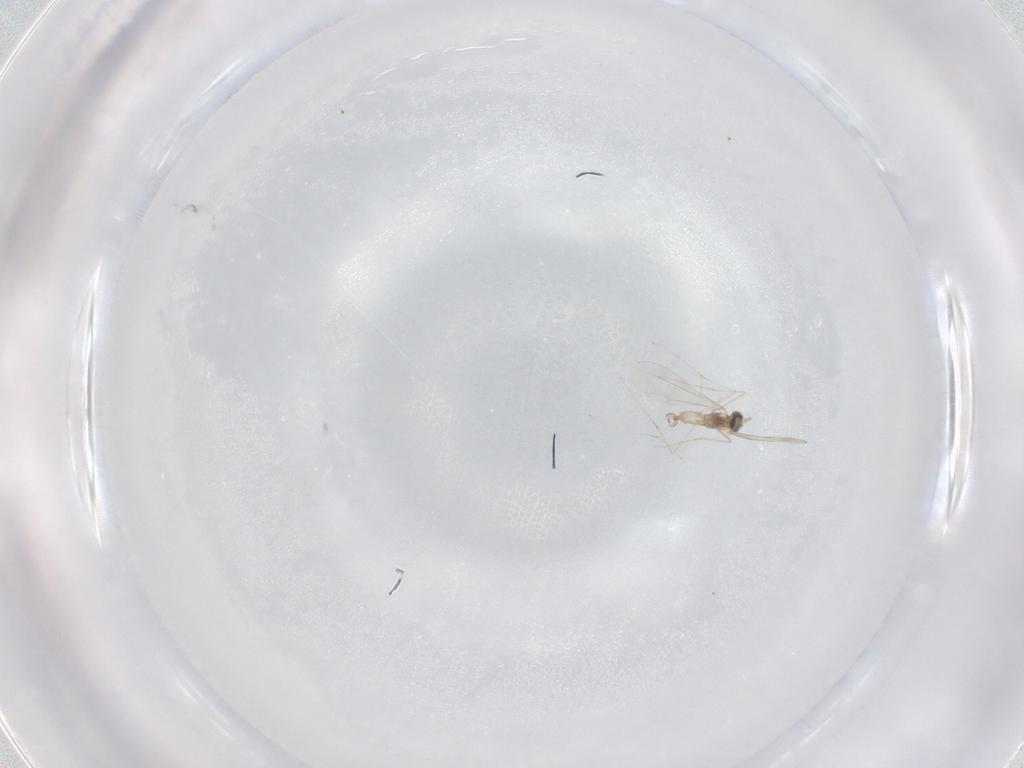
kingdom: Animalia
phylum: Arthropoda
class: Insecta
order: Diptera
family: Cecidomyiidae
